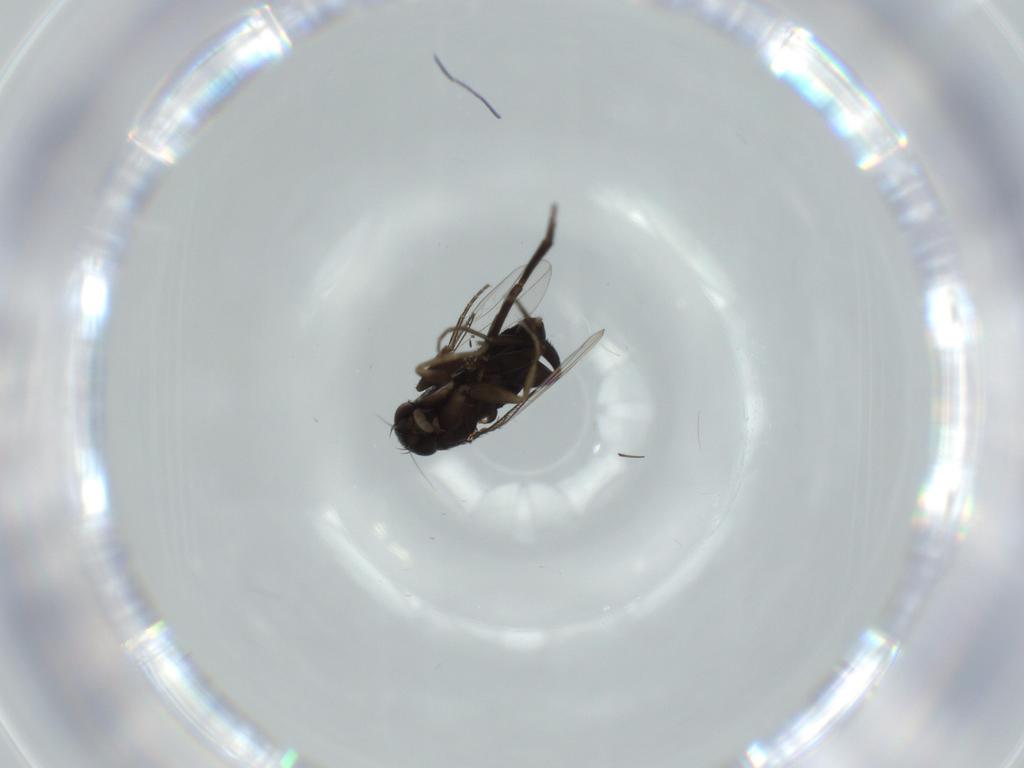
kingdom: Animalia
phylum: Arthropoda
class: Insecta
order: Diptera
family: Phoridae
